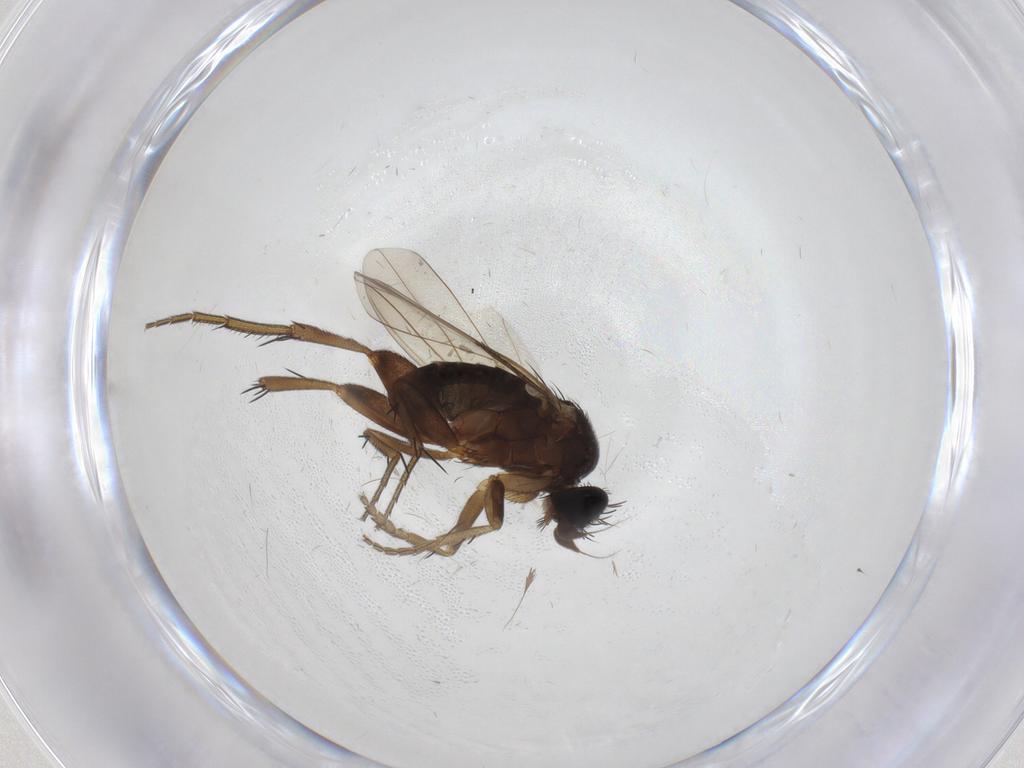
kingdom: Animalia
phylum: Arthropoda
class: Insecta
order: Diptera
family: Phoridae
